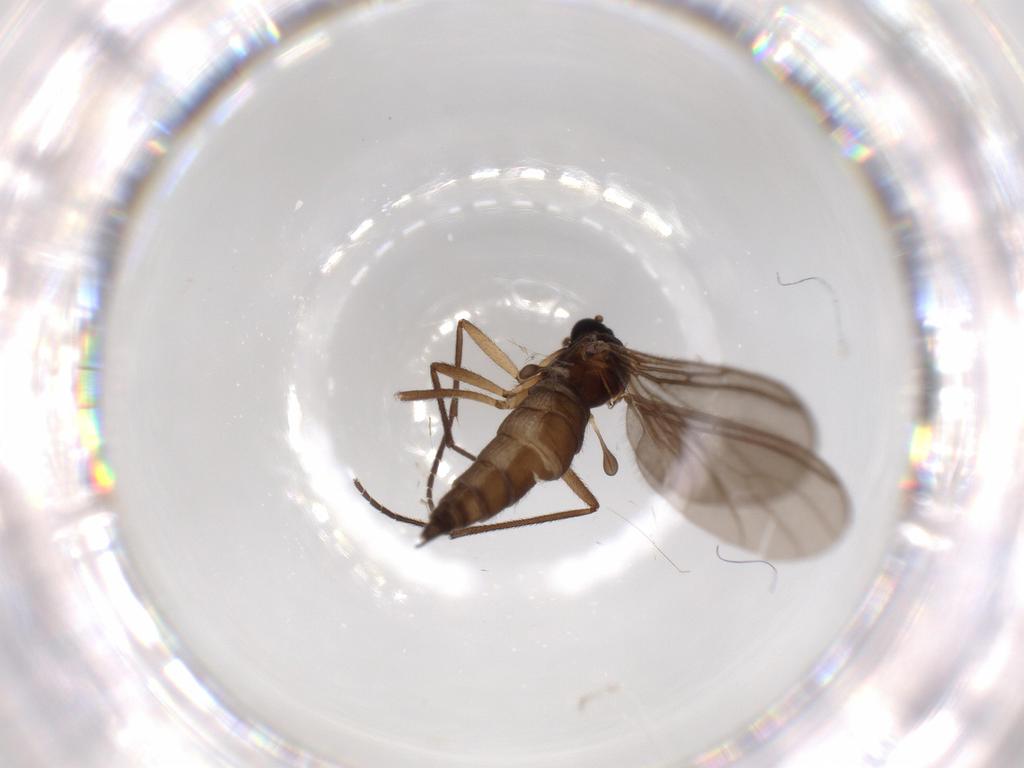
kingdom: Animalia
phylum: Arthropoda
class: Insecta
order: Diptera
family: Sciaridae
